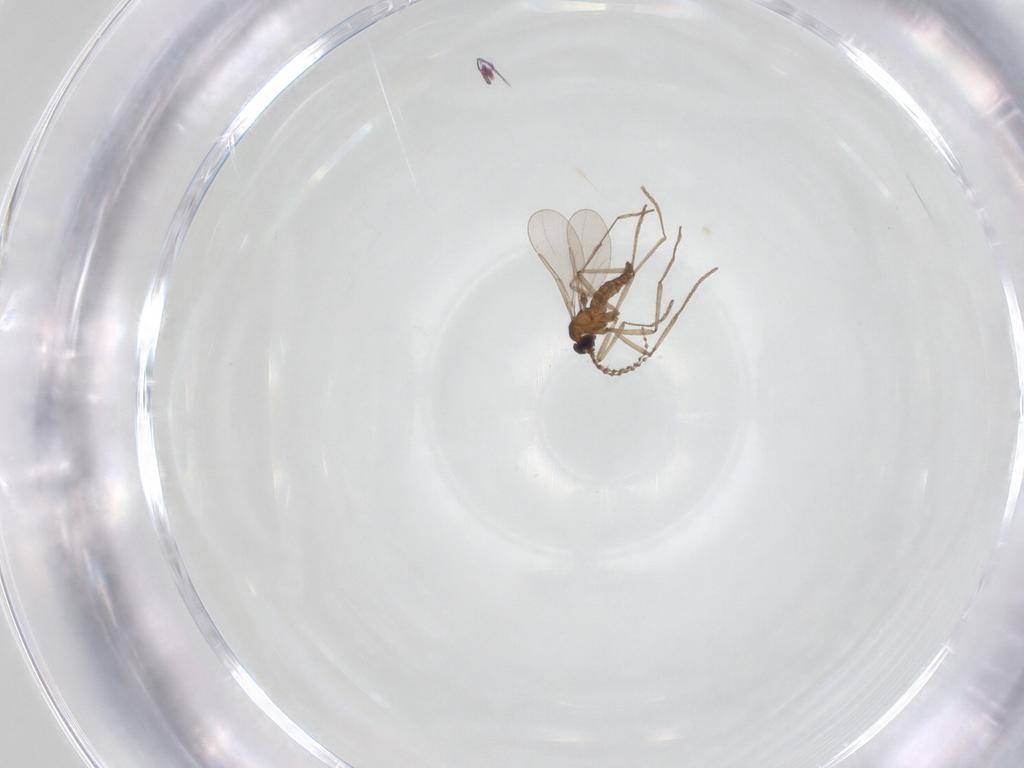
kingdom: Animalia
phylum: Arthropoda
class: Insecta
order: Diptera
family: Cecidomyiidae
